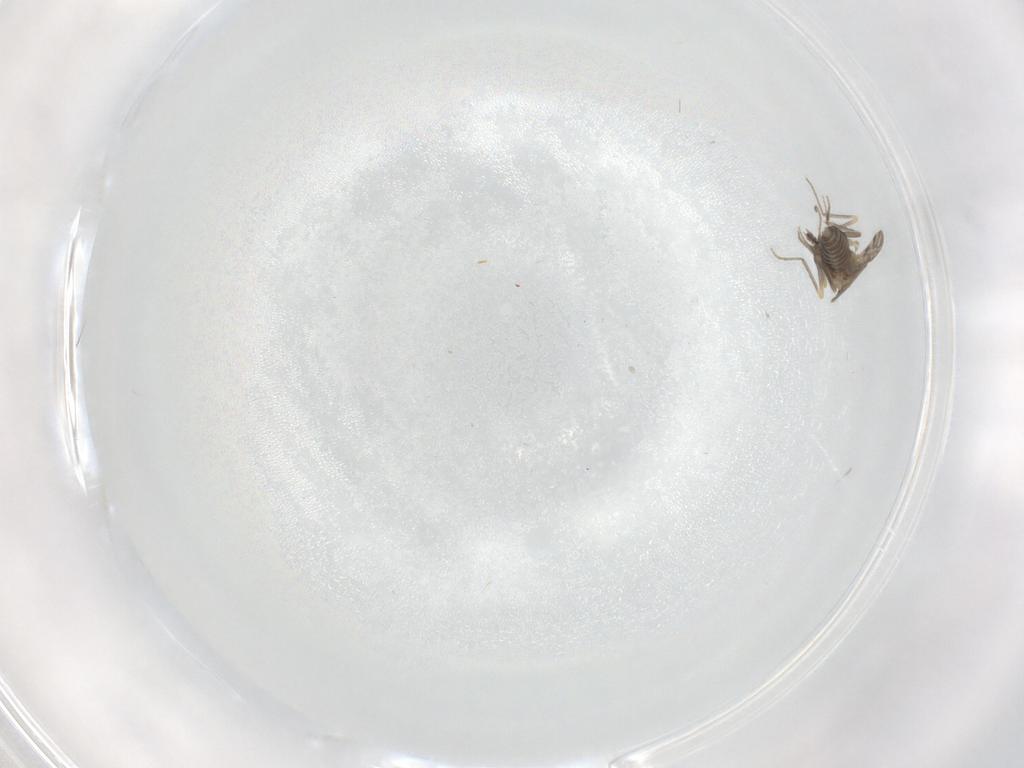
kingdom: Animalia
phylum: Arthropoda
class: Insecta
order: Diptera
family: Ceratopogonidae
